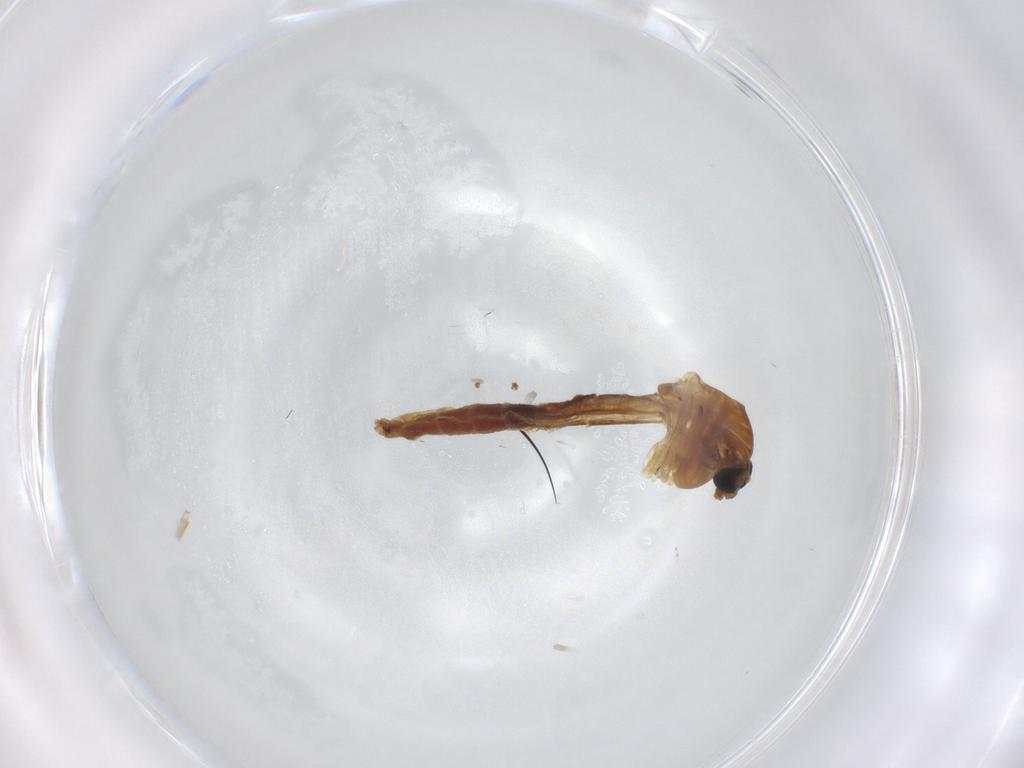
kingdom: Animalia
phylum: Arthropoda
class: Insecta
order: Diptera
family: Chironomidae
